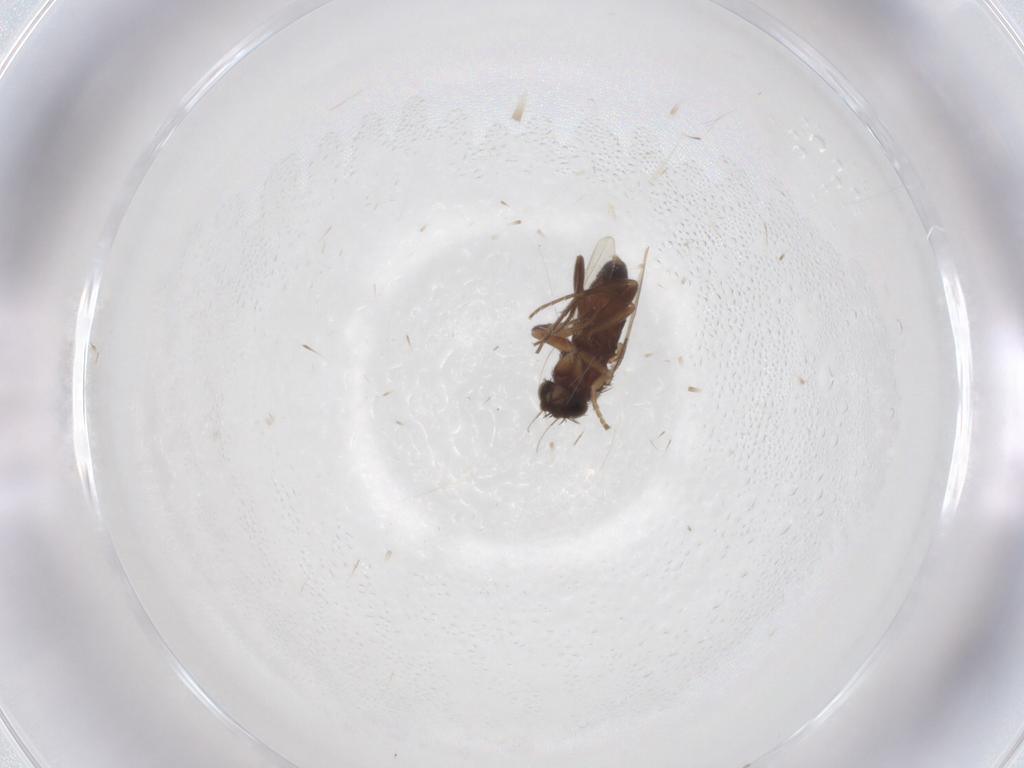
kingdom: Animalia
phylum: Arthropoda
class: Insecta
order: Diptera
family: Phoridae
